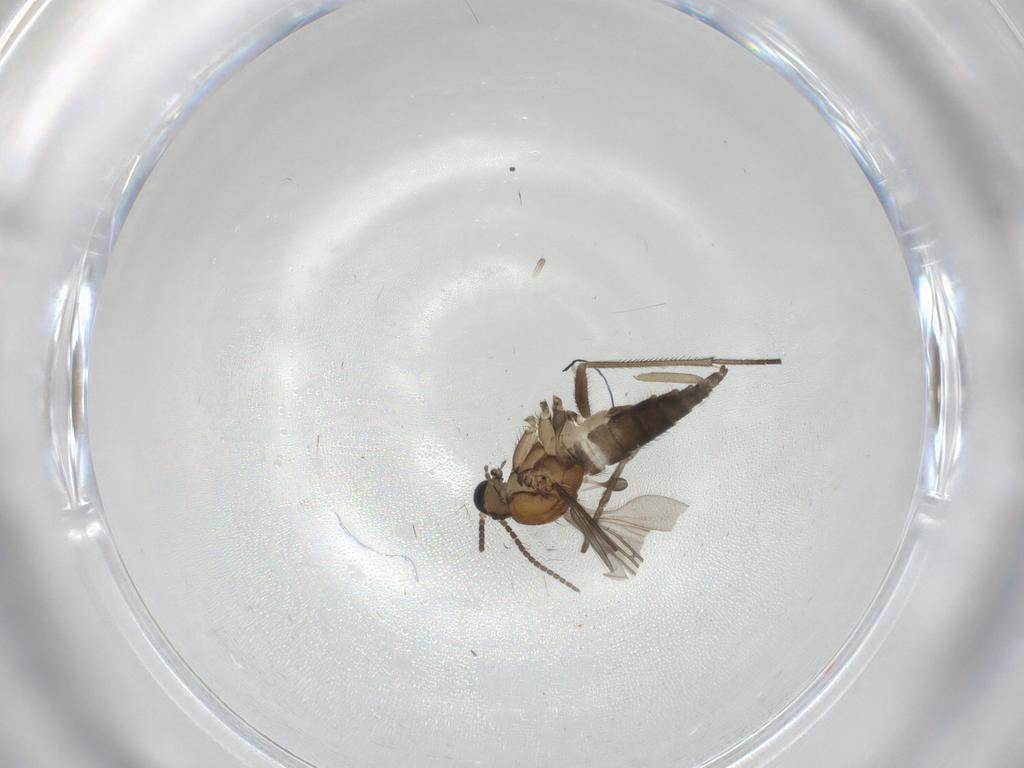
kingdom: Animalia
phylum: Arthropoda
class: Insecta
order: Diptera
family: Sciaridae
